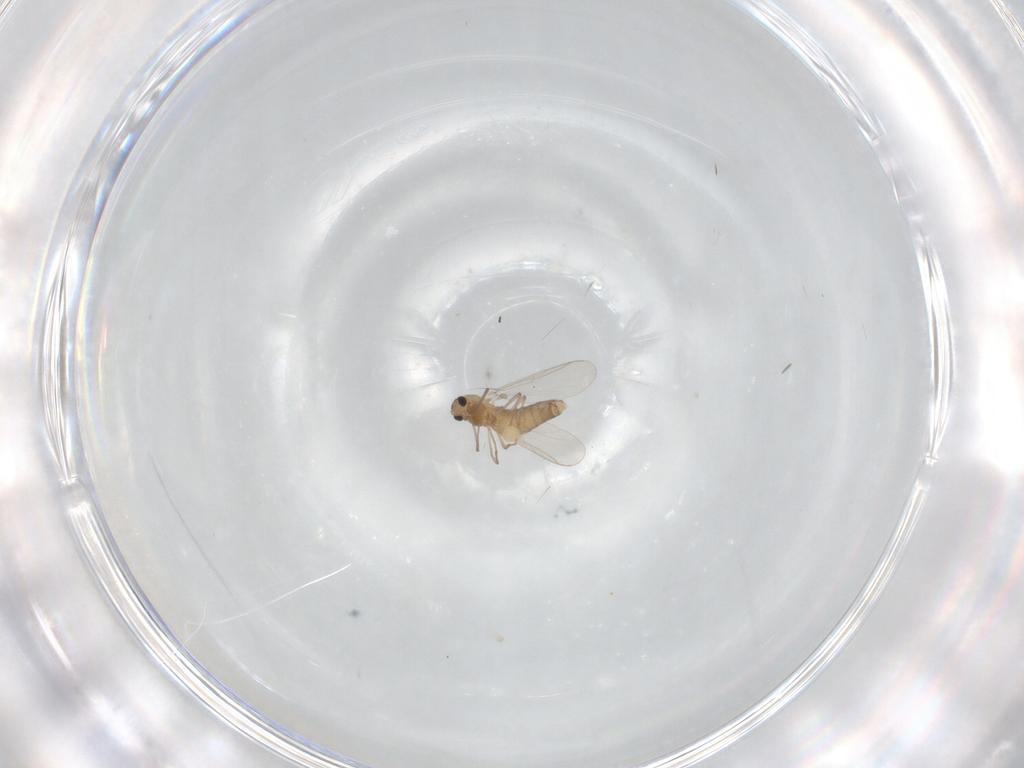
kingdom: Animalia
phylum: Arthropoda
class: Insecta
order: Diptera
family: Chironomidae
